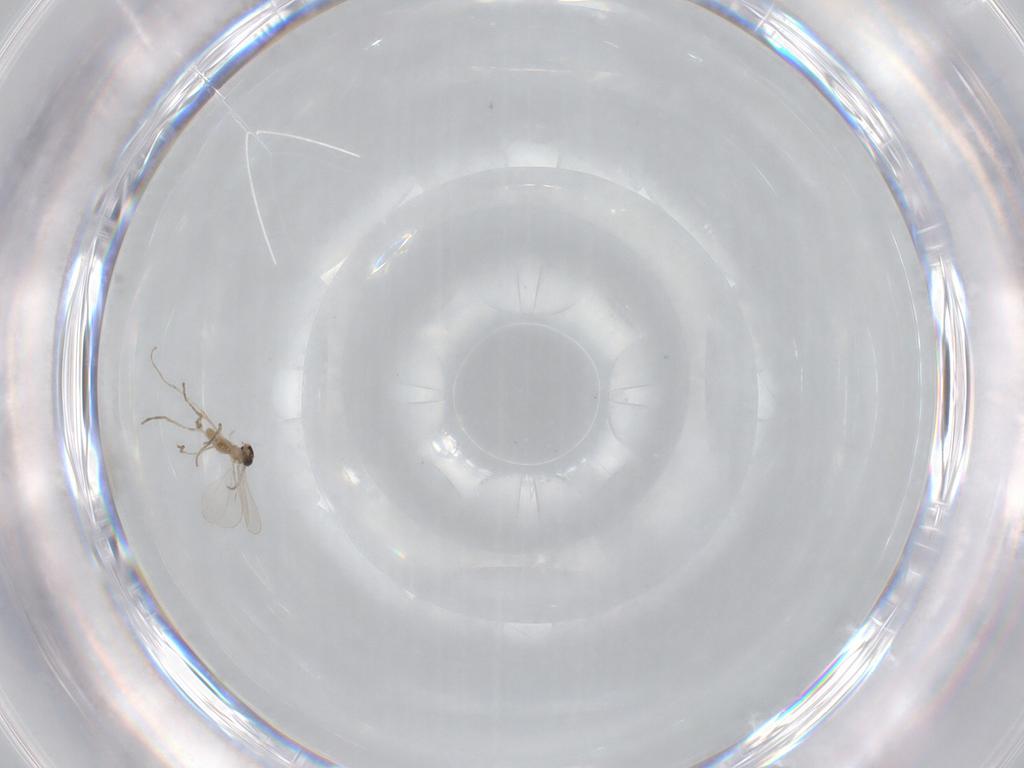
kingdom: Animalia
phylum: Arthropoda
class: Insecta
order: Diptera
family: Cecidomyiidae
